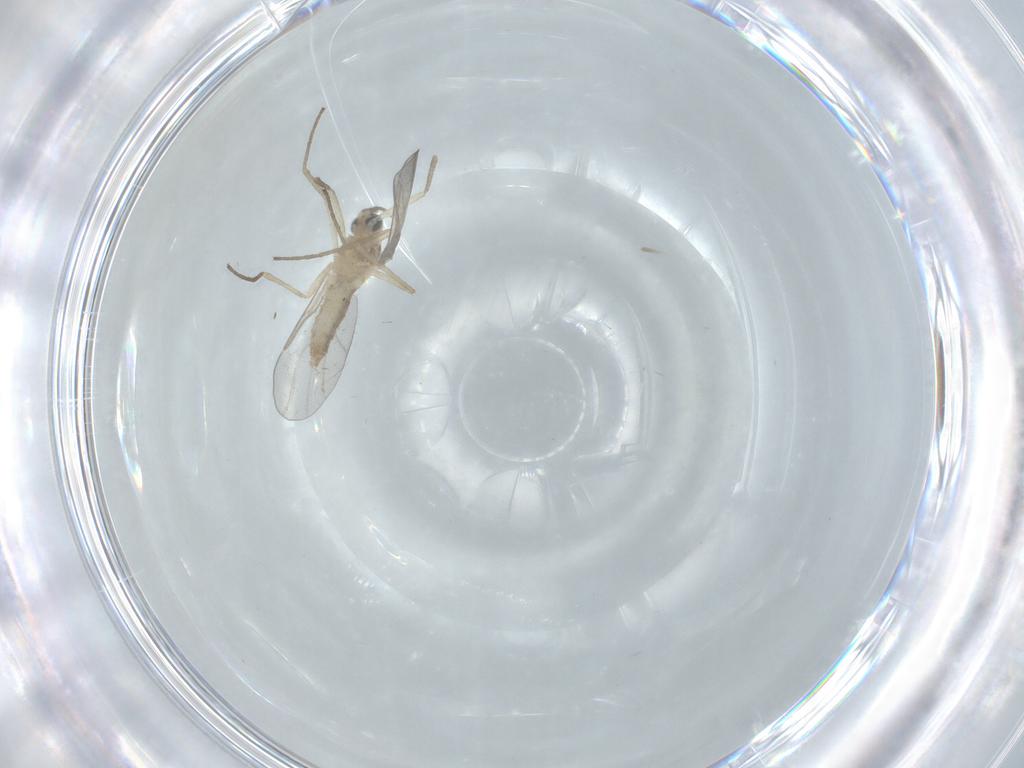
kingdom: Animalia
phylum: Arthropoda
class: Insecta
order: Diptera
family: Cecidomyiidae
